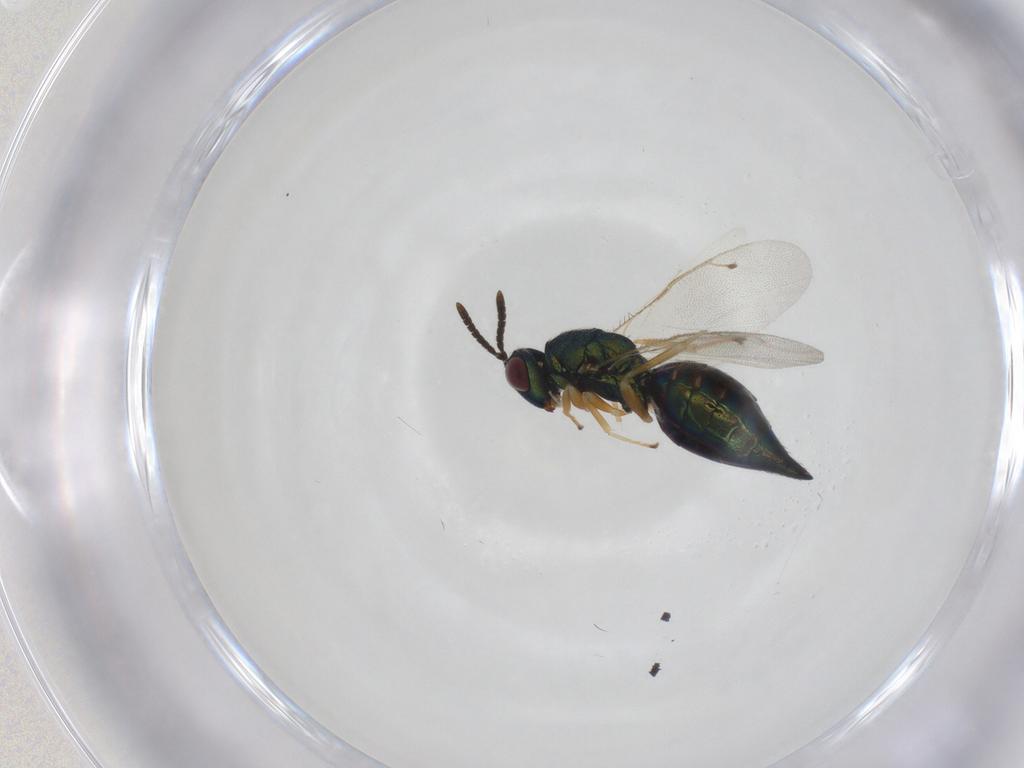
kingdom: Animalia
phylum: Arthropoda
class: Insecta
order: Hymenoptera
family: Pteromalidae
